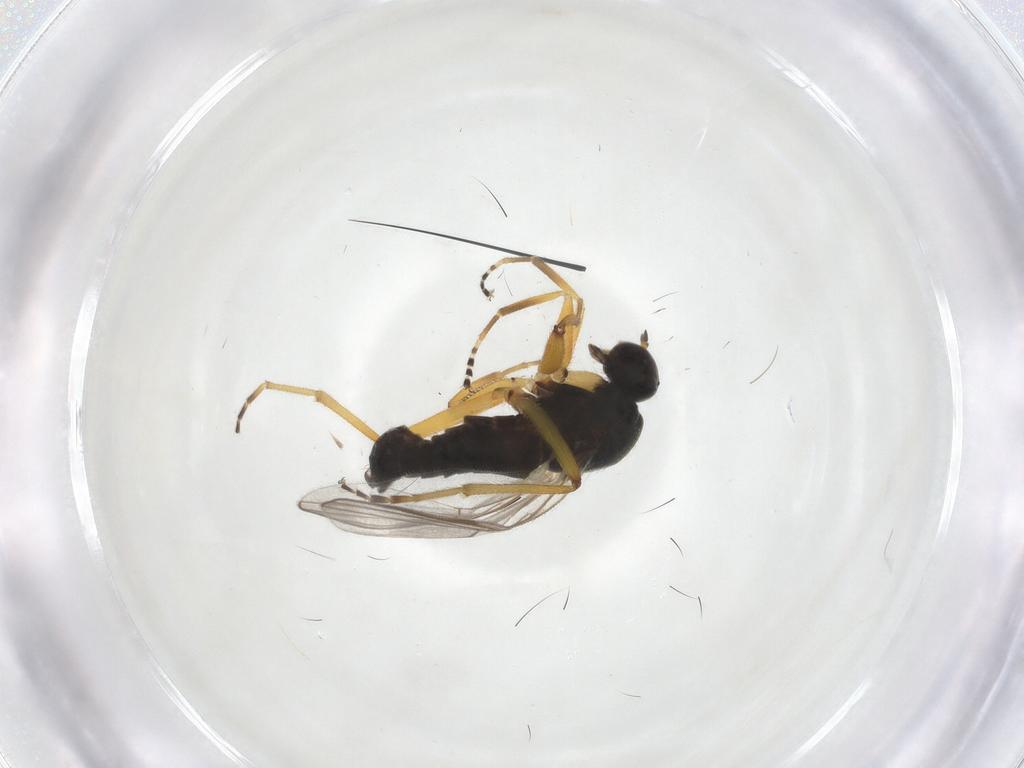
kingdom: Animalia
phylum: Arthropoda
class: Insecta
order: Diptera
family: Hybotidae
